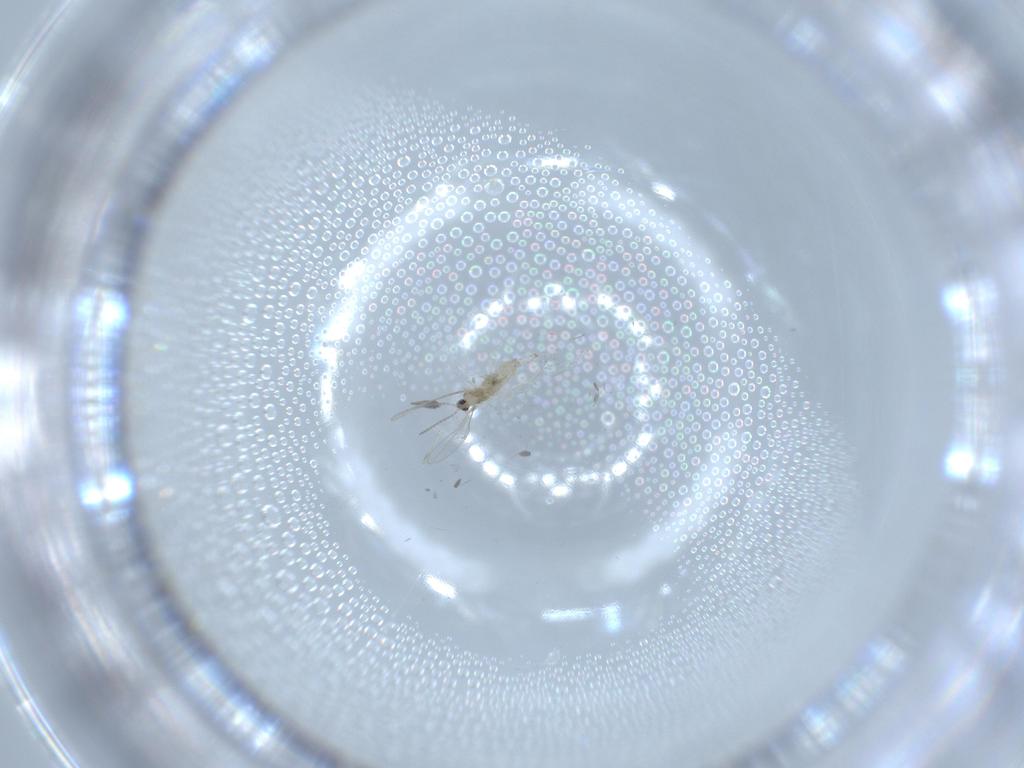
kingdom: Animalia
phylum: Arthropoda
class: Insecta
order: Diptera
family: Cecidomyiidae
